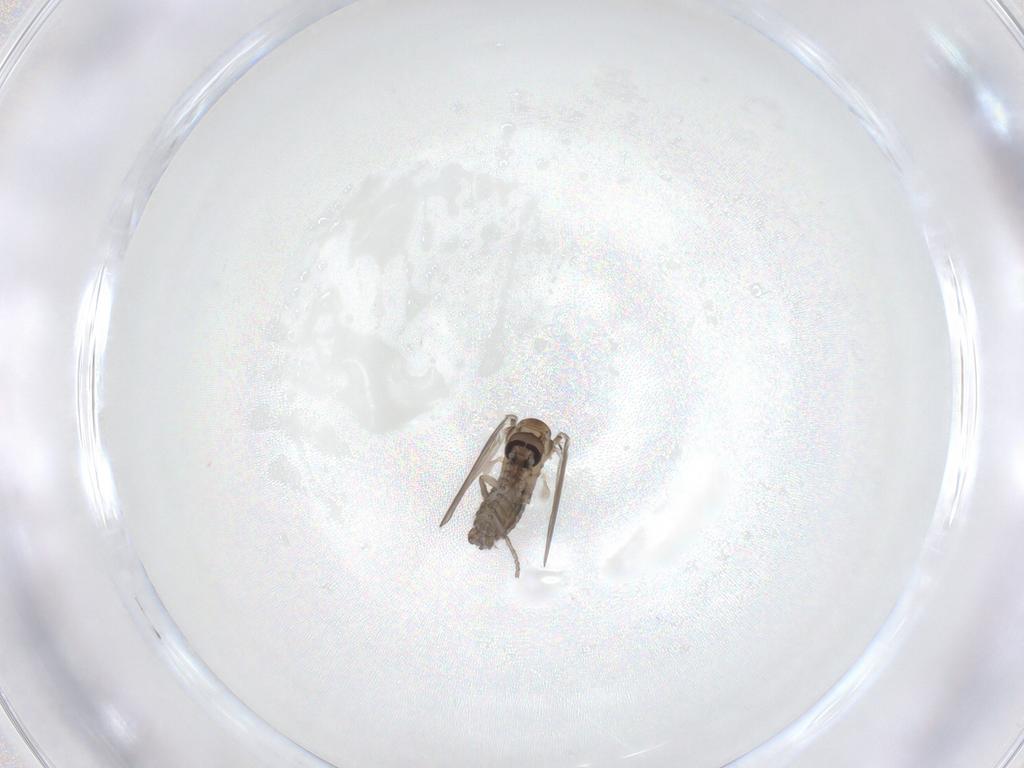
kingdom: Animalia
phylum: Arthropoda
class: Insecta
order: Diptera
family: Psychodidae
